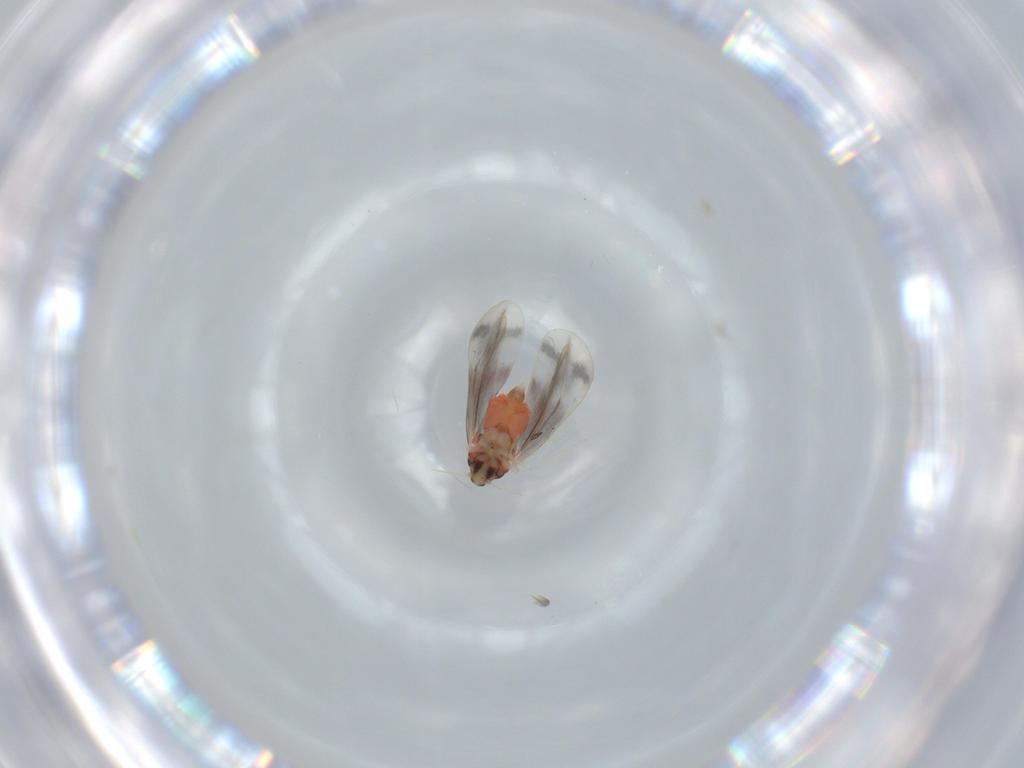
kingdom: Animalia
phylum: Arthropoda
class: Insecta
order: Hemiptera
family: Aleyrodidae
